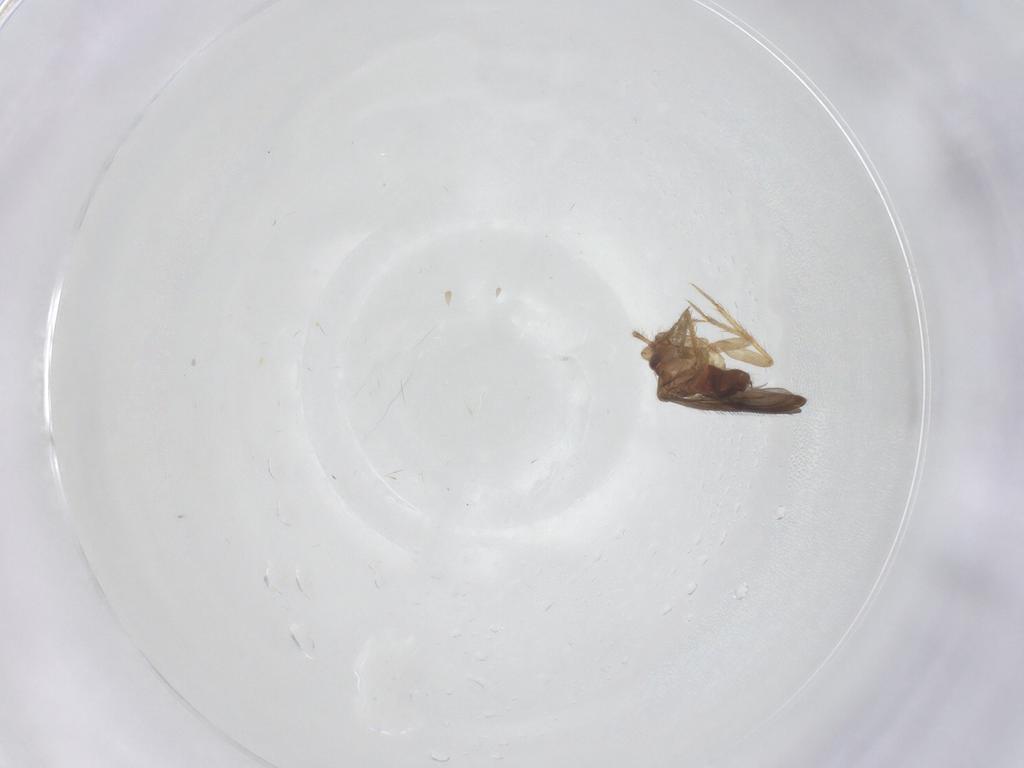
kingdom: Animalia
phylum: Arthropoda
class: Insecta
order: Hemiptera
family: Ceratocombidae
